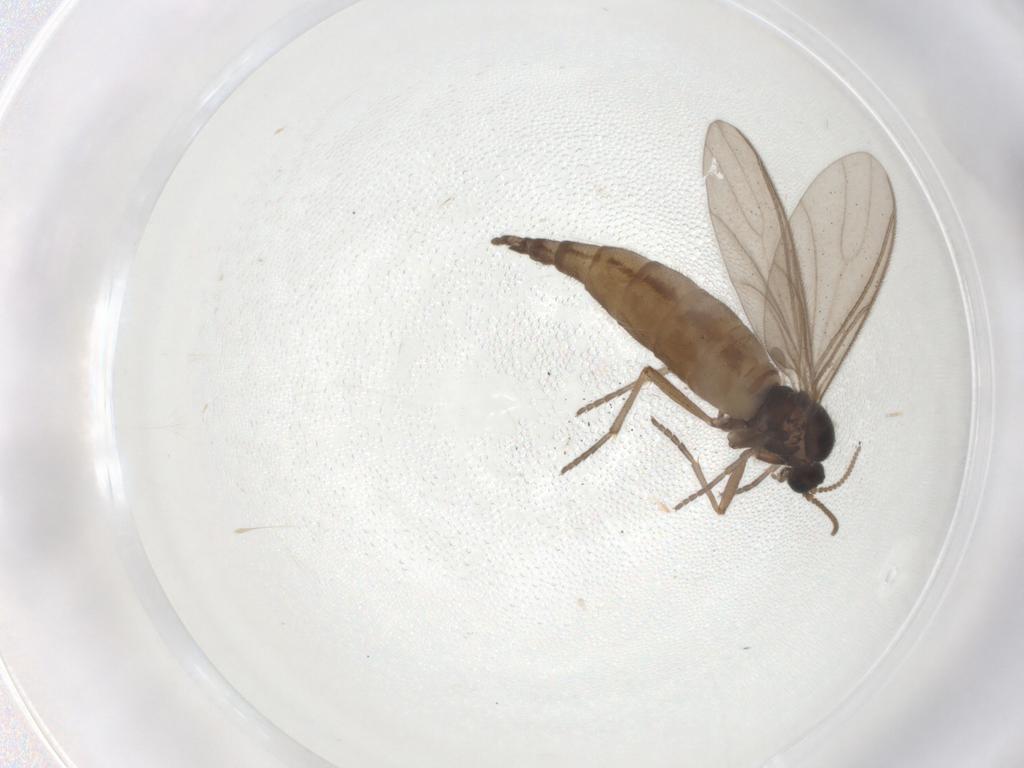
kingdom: Animalia
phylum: Arthropoda
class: Insecta
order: Diptera
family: Sciaridae
